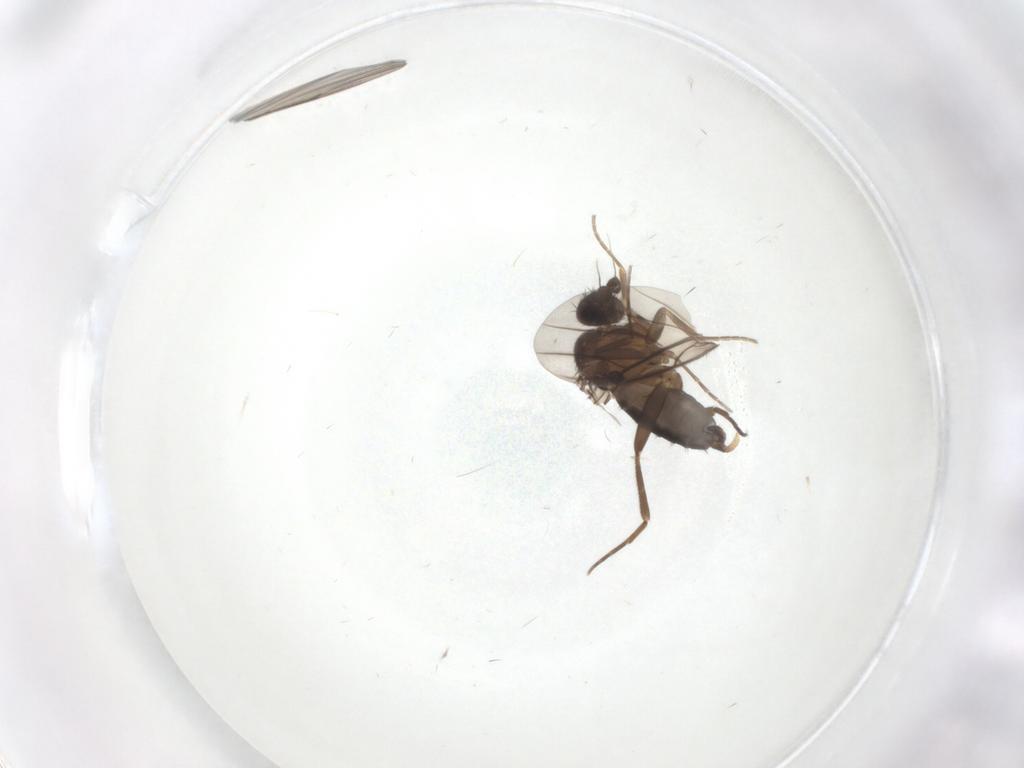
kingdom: Animalia
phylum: Arthropoda
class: Insecta
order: Diptera
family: Phoridae
